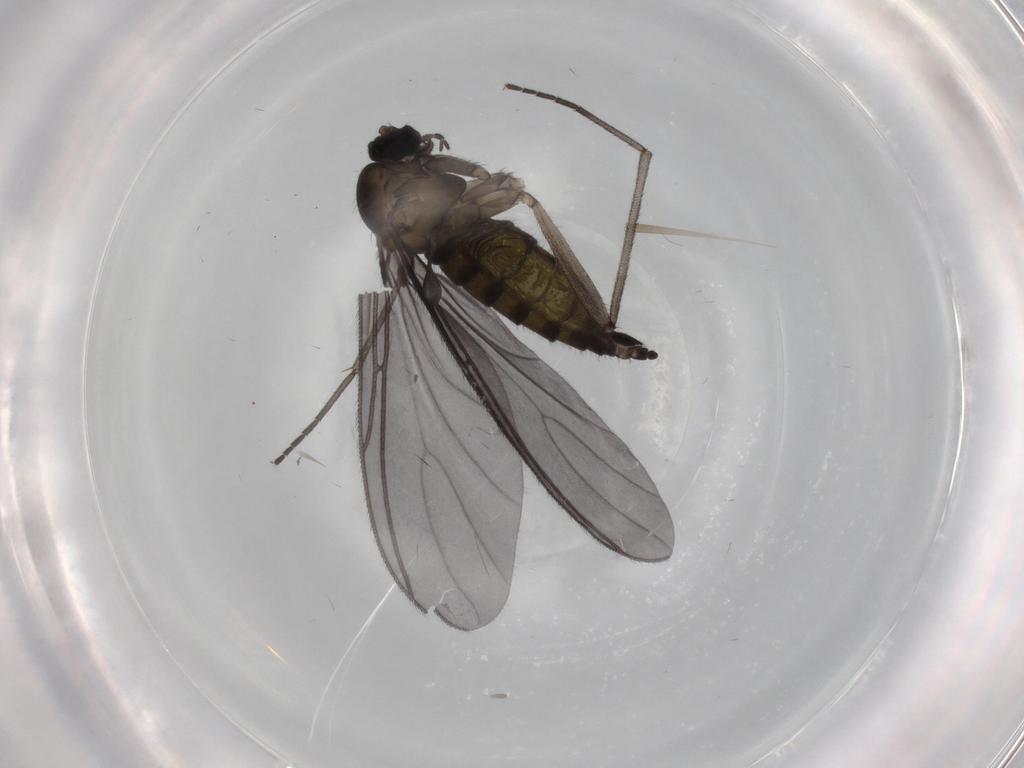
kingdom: Animalia
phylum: Arthropoda
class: Insecta
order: Diptera
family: Sciaridae
